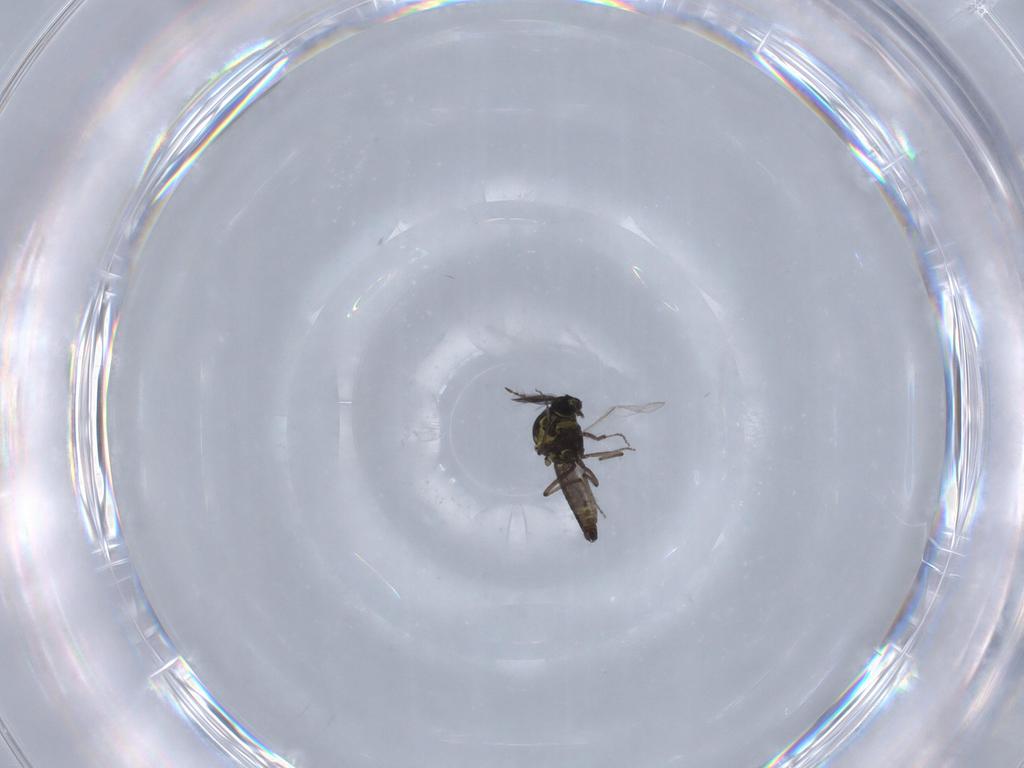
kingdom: Animalia
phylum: Arthropoda
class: Insecta
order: Diptera
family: Ceratopogonidae
